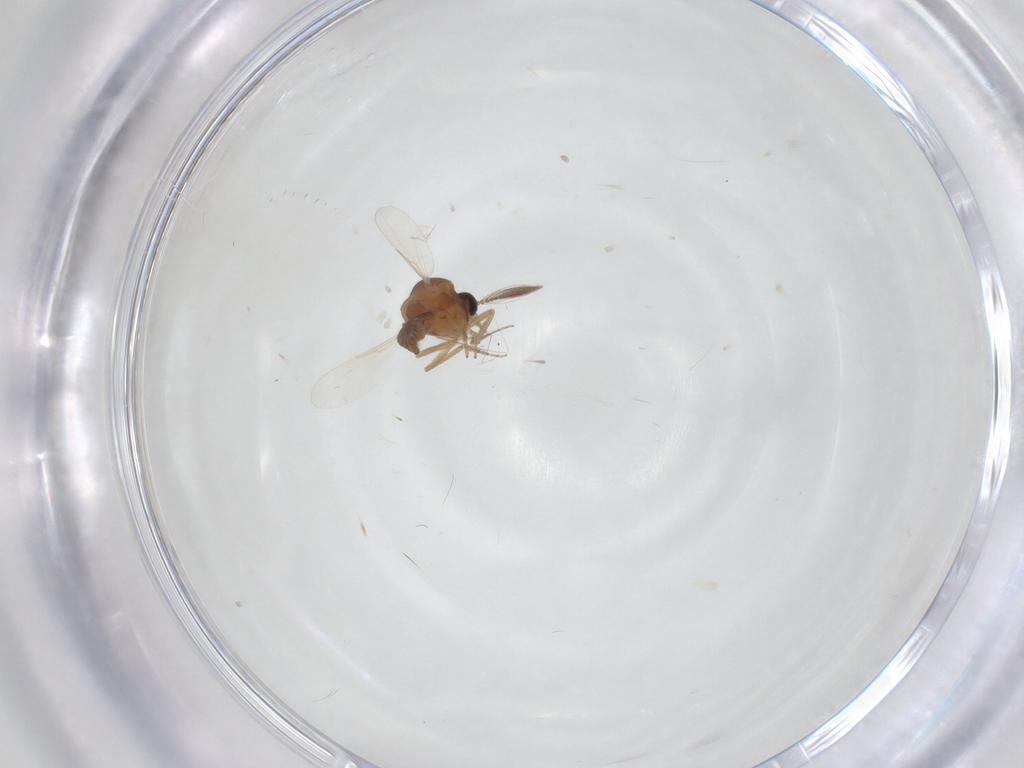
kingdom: Animalia
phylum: Arthropoda
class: Insecta
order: Diptera
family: Ceratopogonidae
